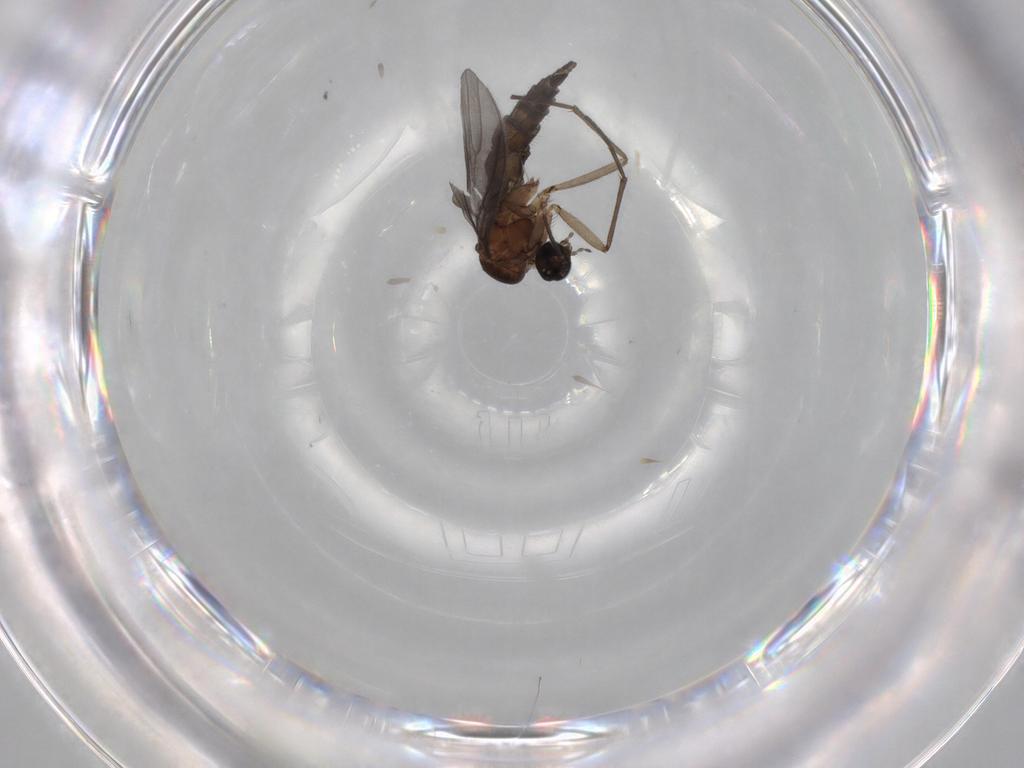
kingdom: Animalia
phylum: Arthropoda
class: Insecta
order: Diptera
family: Sciaridae
